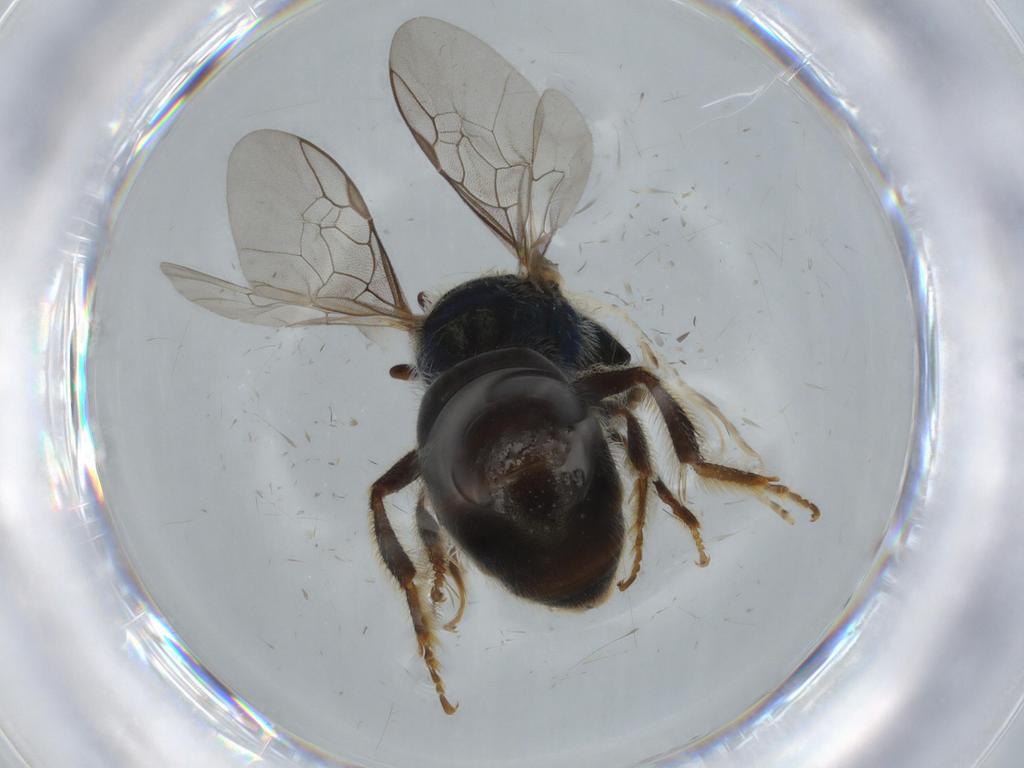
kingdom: Animalia
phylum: Arthropoda
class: Insecta
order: Hymenoptera
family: Halictidae
